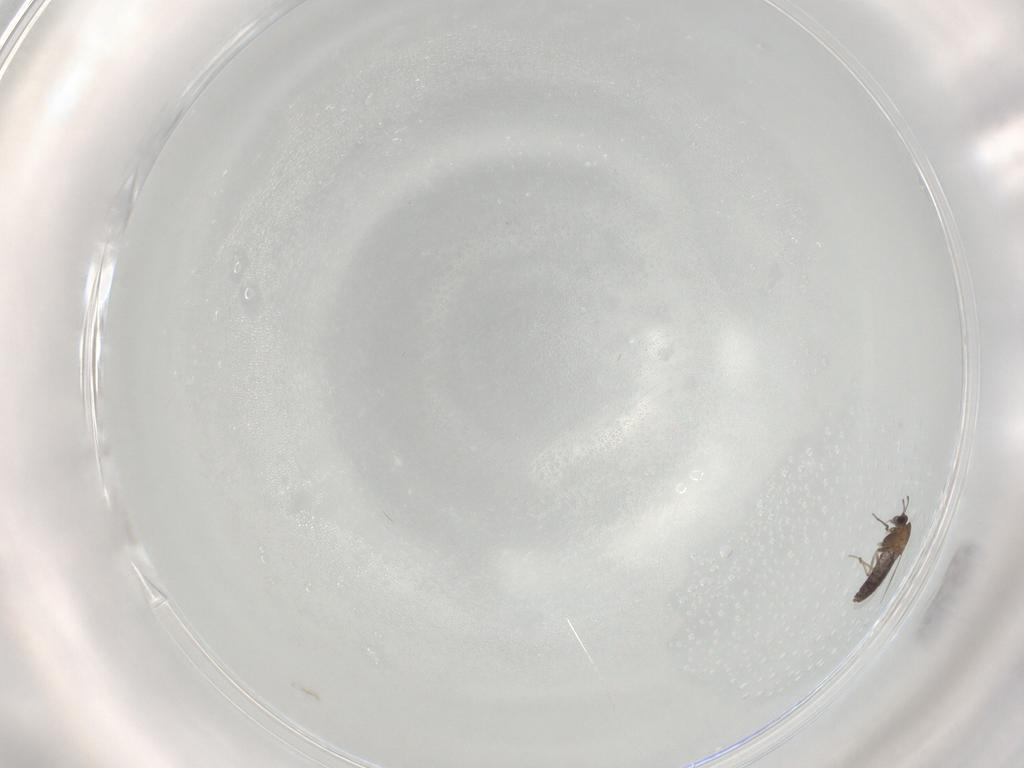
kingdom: Animalia
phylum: Arthropoda
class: Insecta
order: Diptera
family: Chironomidae
